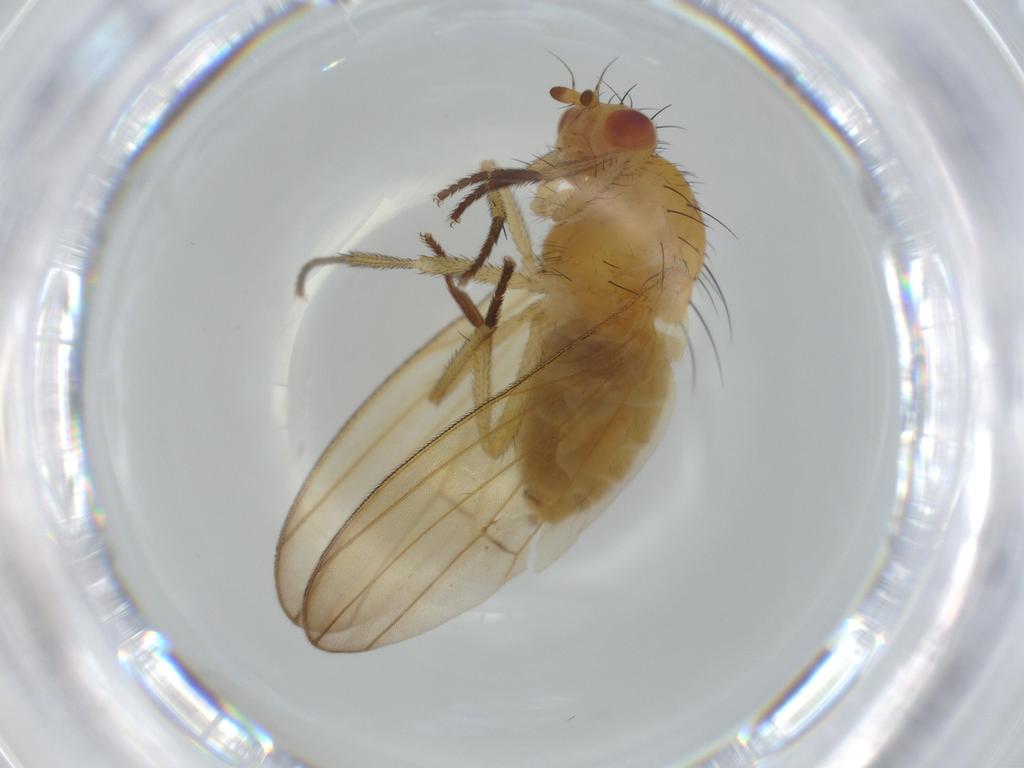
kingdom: Animalia
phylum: Arthropoda
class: Insecta
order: Diptera
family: Lauxaniidae
